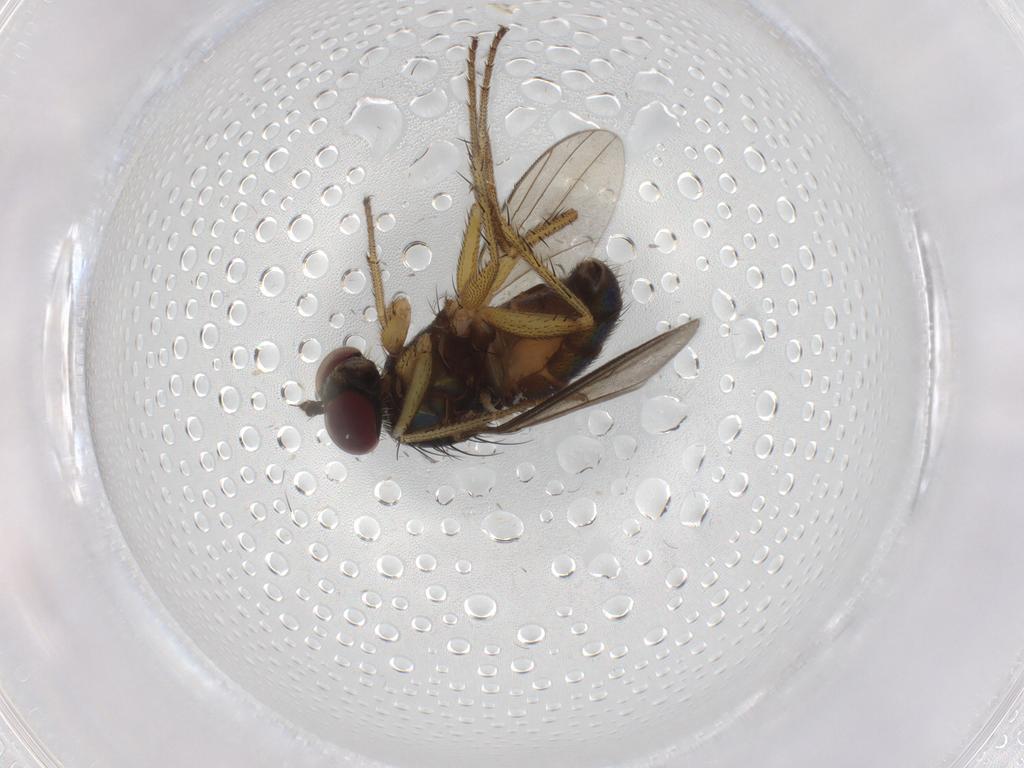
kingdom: Animalia
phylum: Arthropoda
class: Insecta
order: Diptera
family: Dolichopodidae
